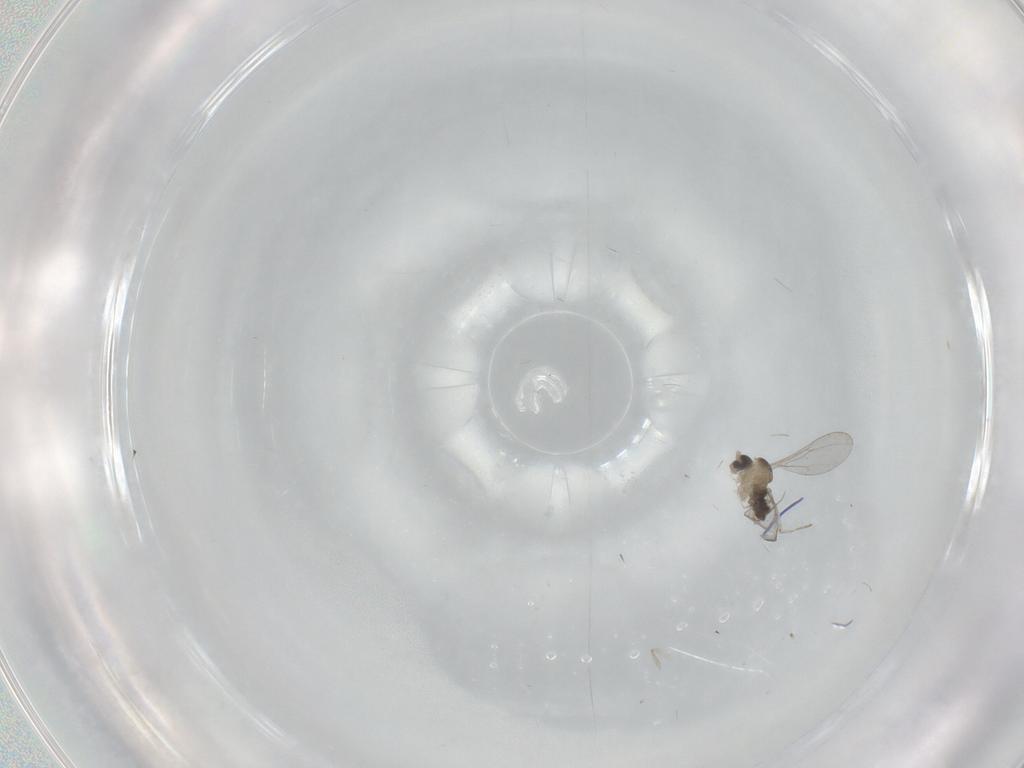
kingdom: Animalia
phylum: Arthropoda
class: Insecta
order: Diptera
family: Cecidomyiidae
